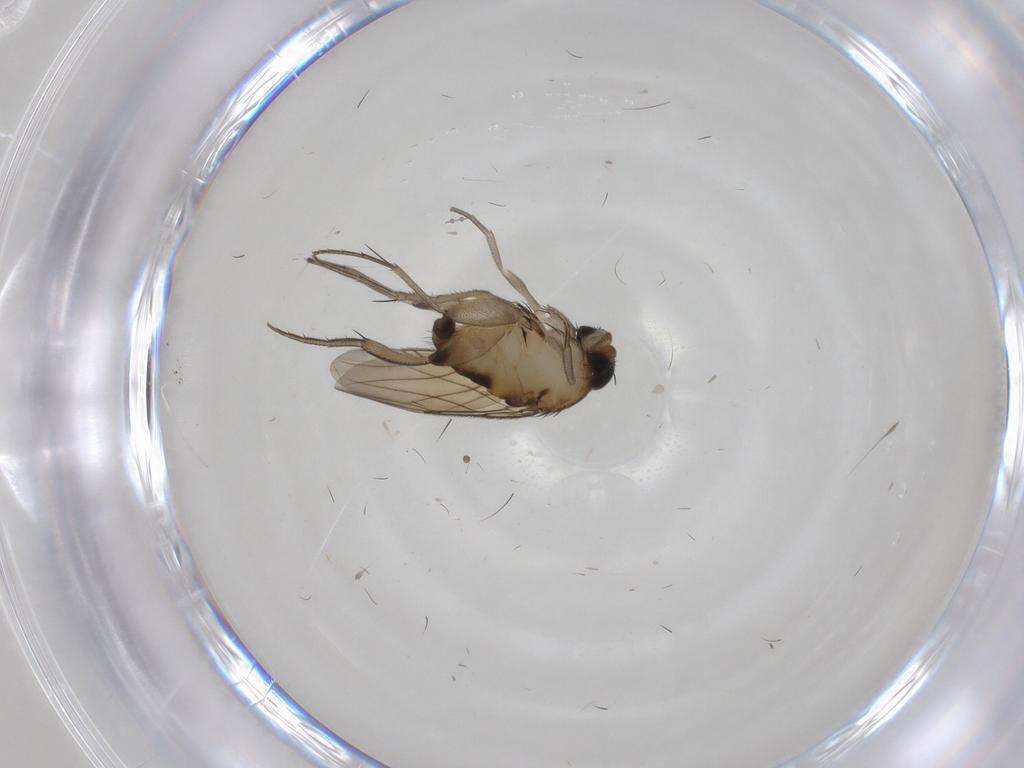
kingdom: Animalia
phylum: Arthropoda
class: Insecta
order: Diptera
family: Phoridae
